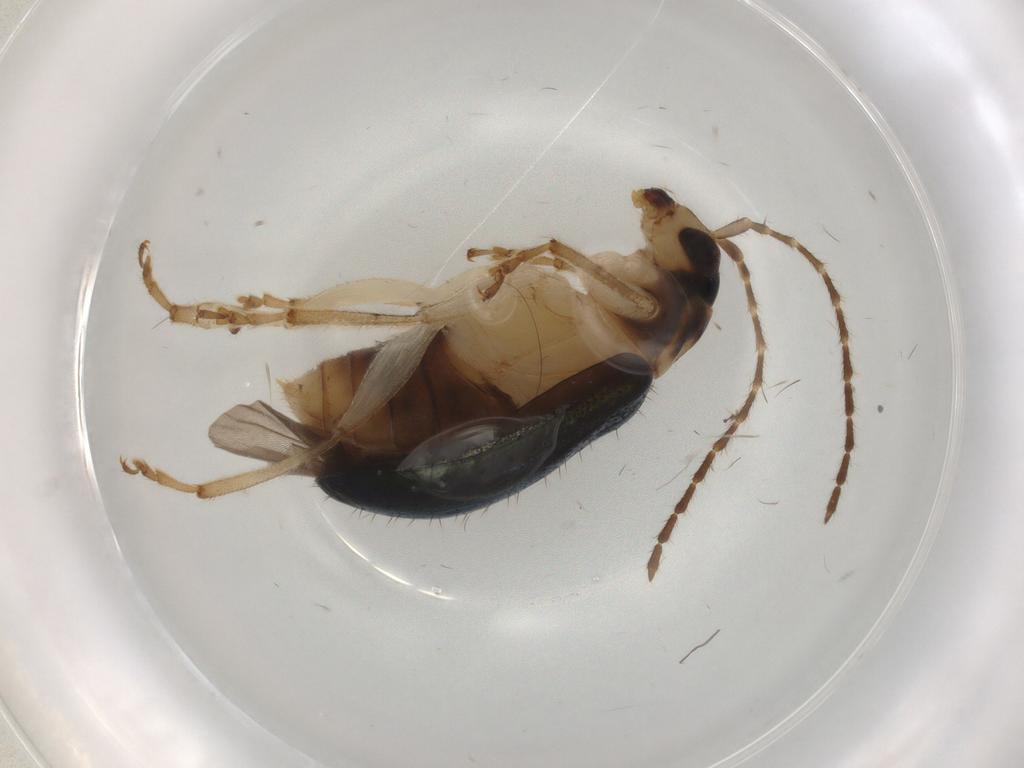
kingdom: Animalia
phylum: Arthropoda
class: Insecta
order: Coleoptera
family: Chrysomelidae
